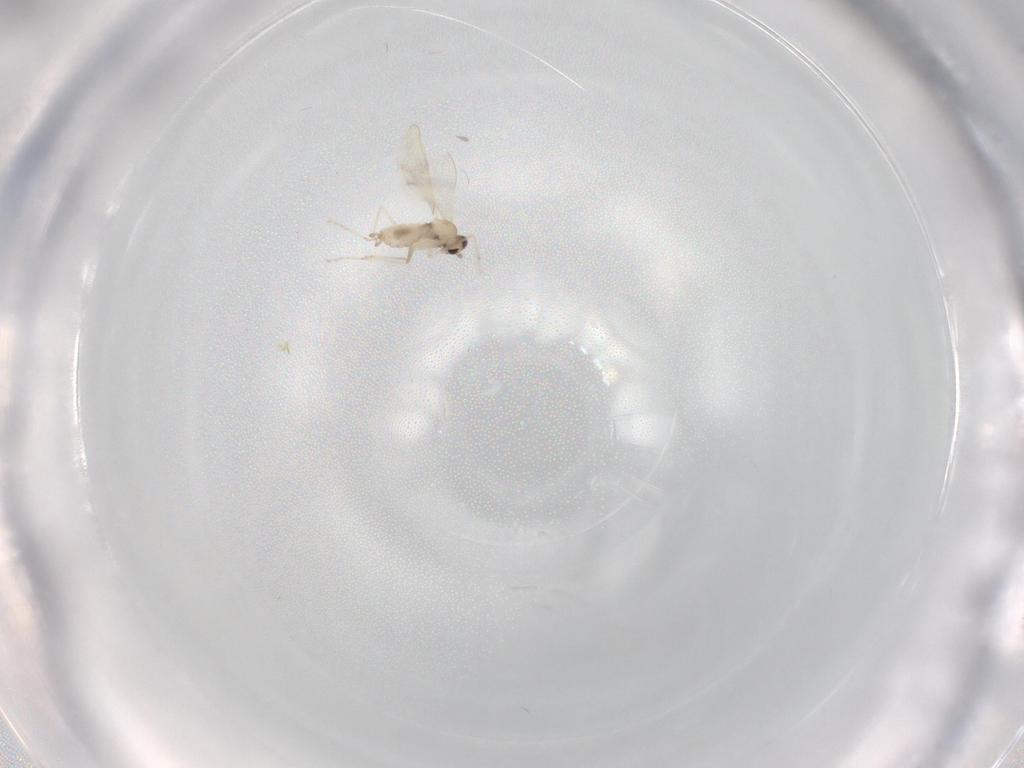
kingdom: Animalia
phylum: Arthropoda
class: Insecta
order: Diptera
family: Cecidomyiidae
